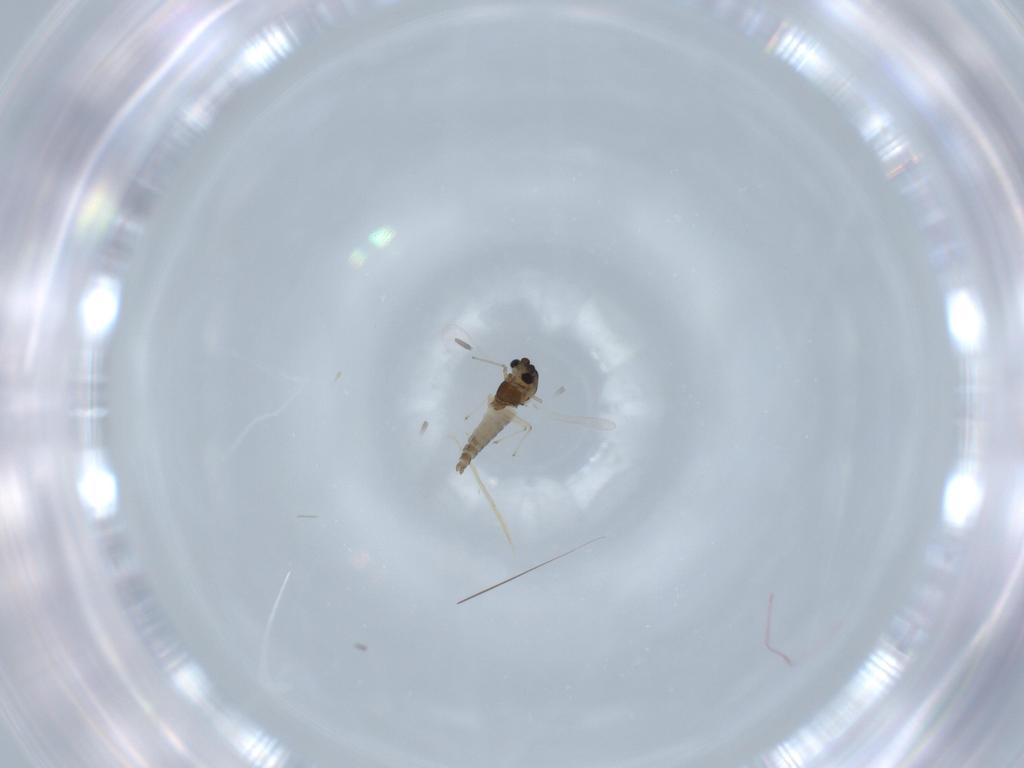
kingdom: Animalia
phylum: Arthropoda
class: Insecta
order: Diptera
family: Chironomidae
